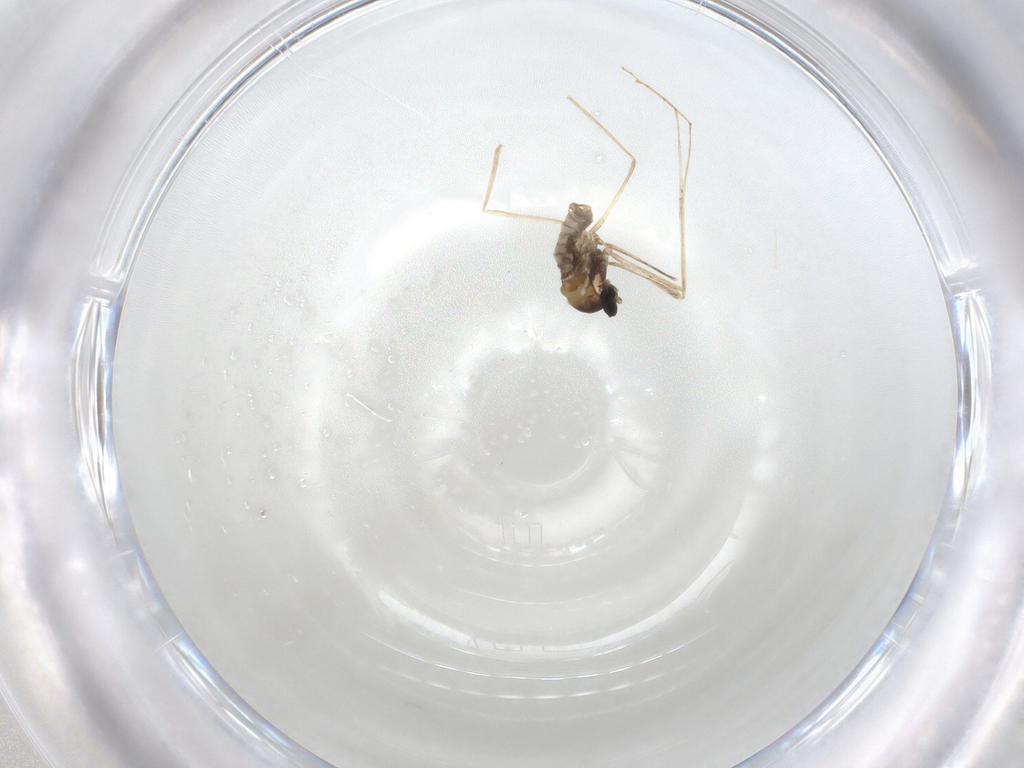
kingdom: Animalia
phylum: Arthropoda
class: Insecta
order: Diptera
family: Cecidomyiidae
